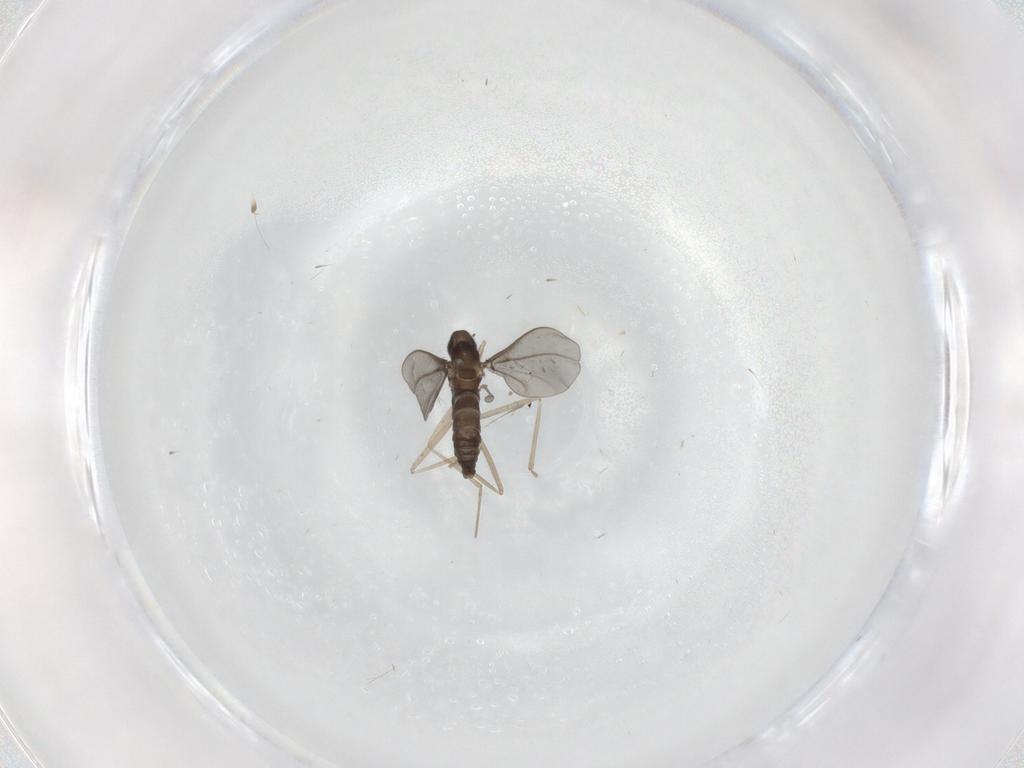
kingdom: Animalia
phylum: Arthropoda
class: Insecta
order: Diptera
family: Cecidomyiidae
